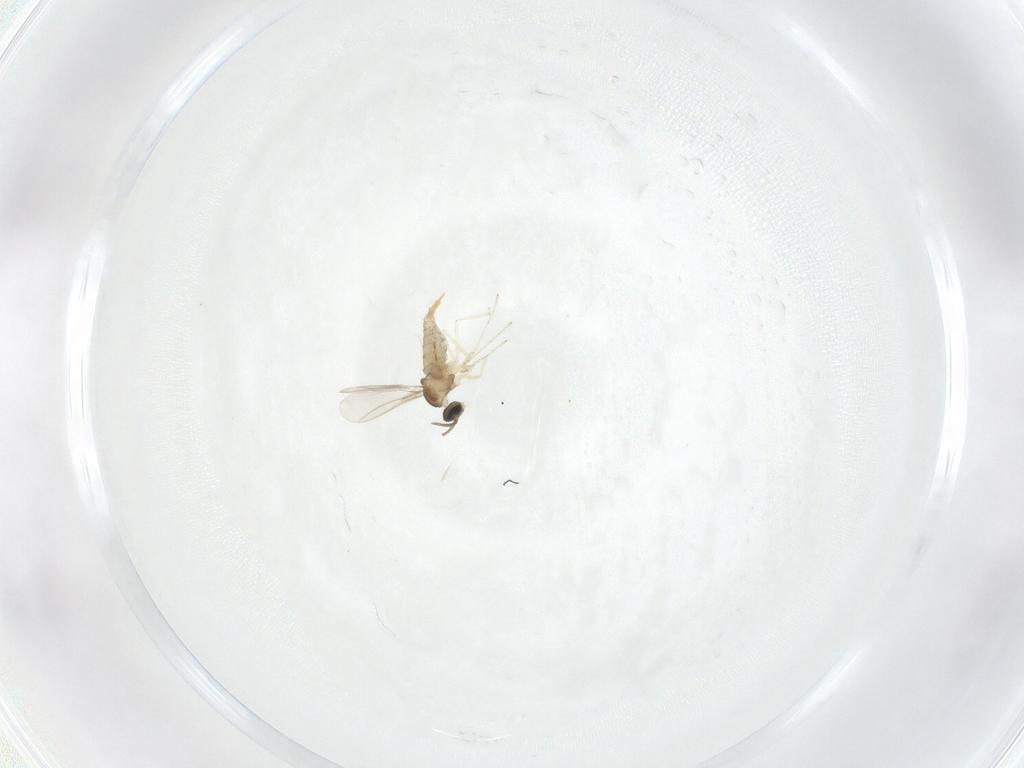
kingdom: Animalia
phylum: Arthropoda
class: Insecta
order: Diptera
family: Cecidomyiidae
